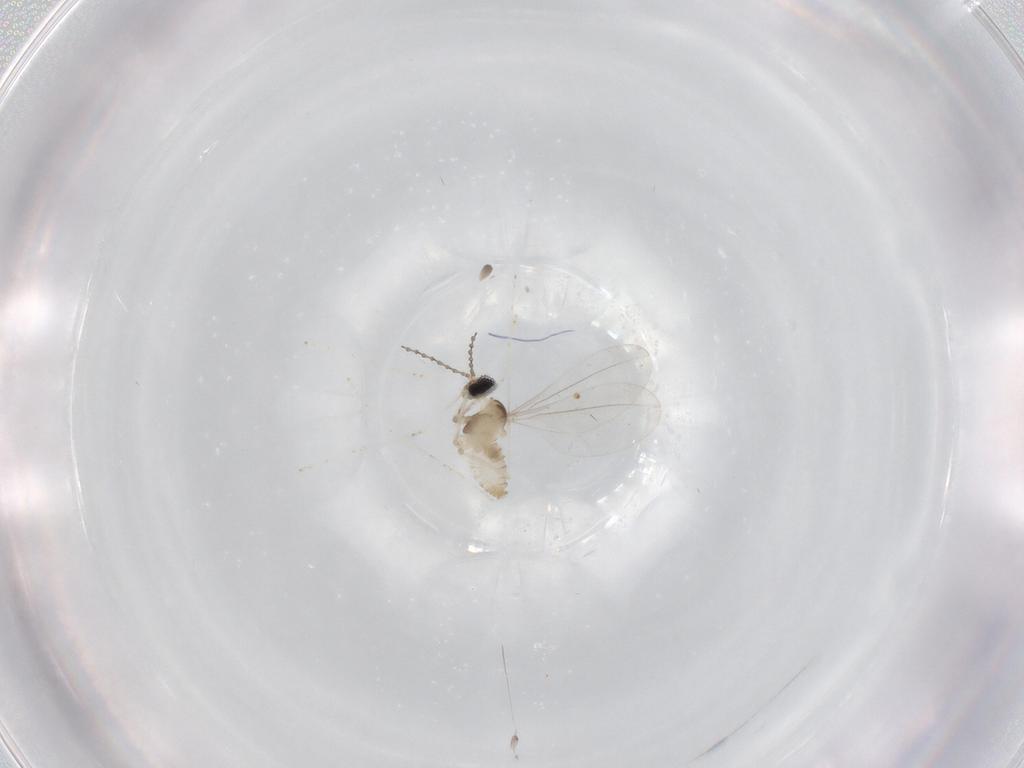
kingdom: Animalia
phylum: Arthropoda
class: Insecta
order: Diptera
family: Cecidomyiidae
